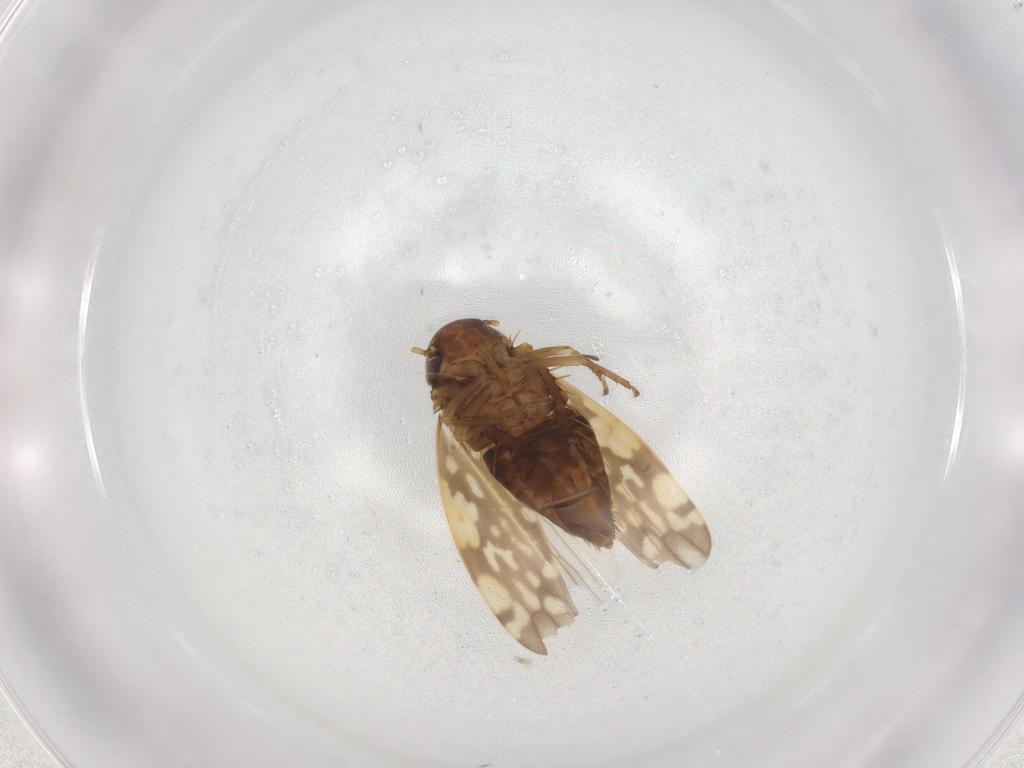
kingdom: Animalia
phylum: Arthropoda
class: Insecta
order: Hemiptera
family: Cicadellidae
